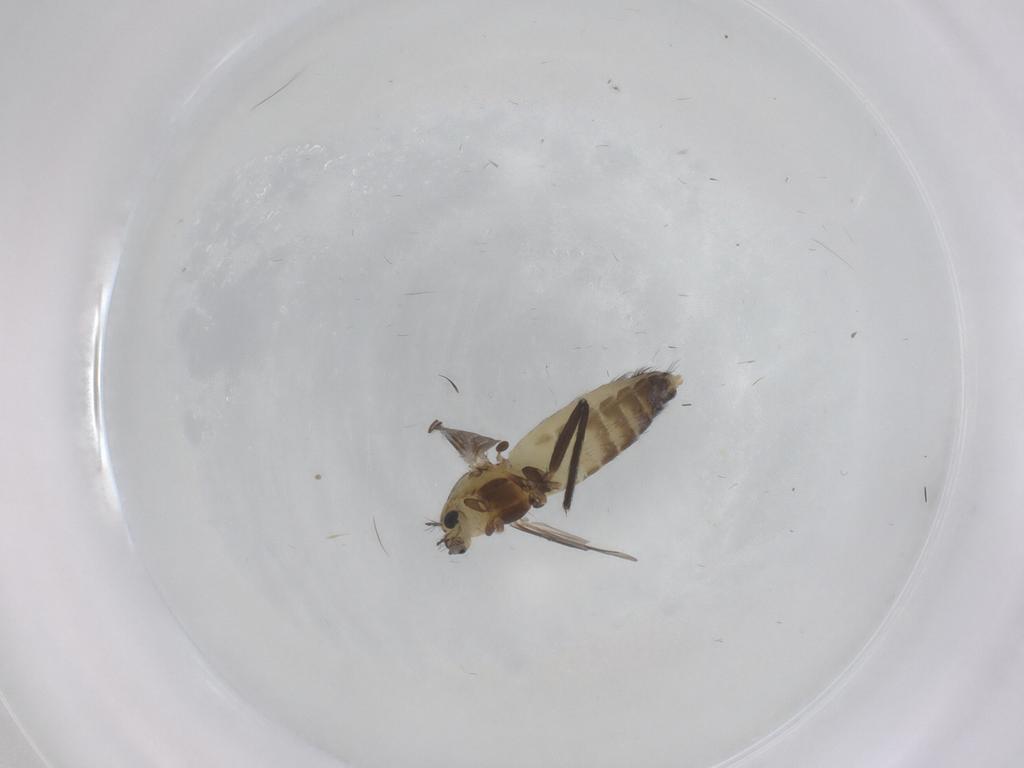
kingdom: Animalia
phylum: Arthropoda
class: Insecta
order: Diptera
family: Chironomidae
